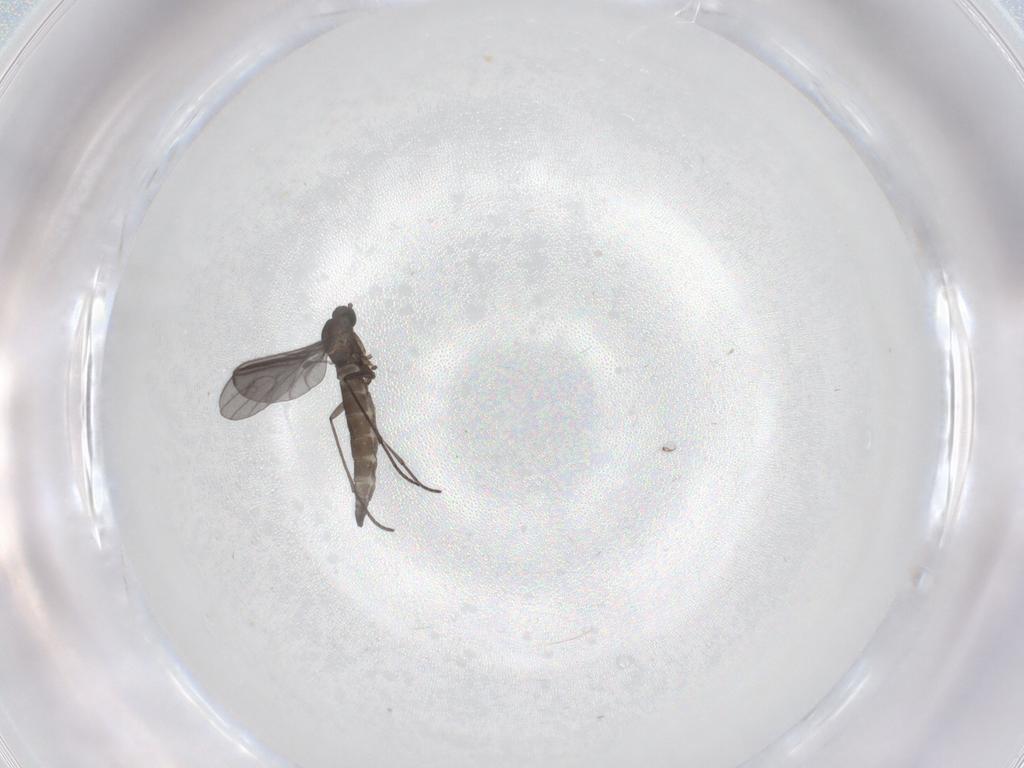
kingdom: Animalia
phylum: Arthropoda
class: Insecta
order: Diptera
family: Sciaridae
